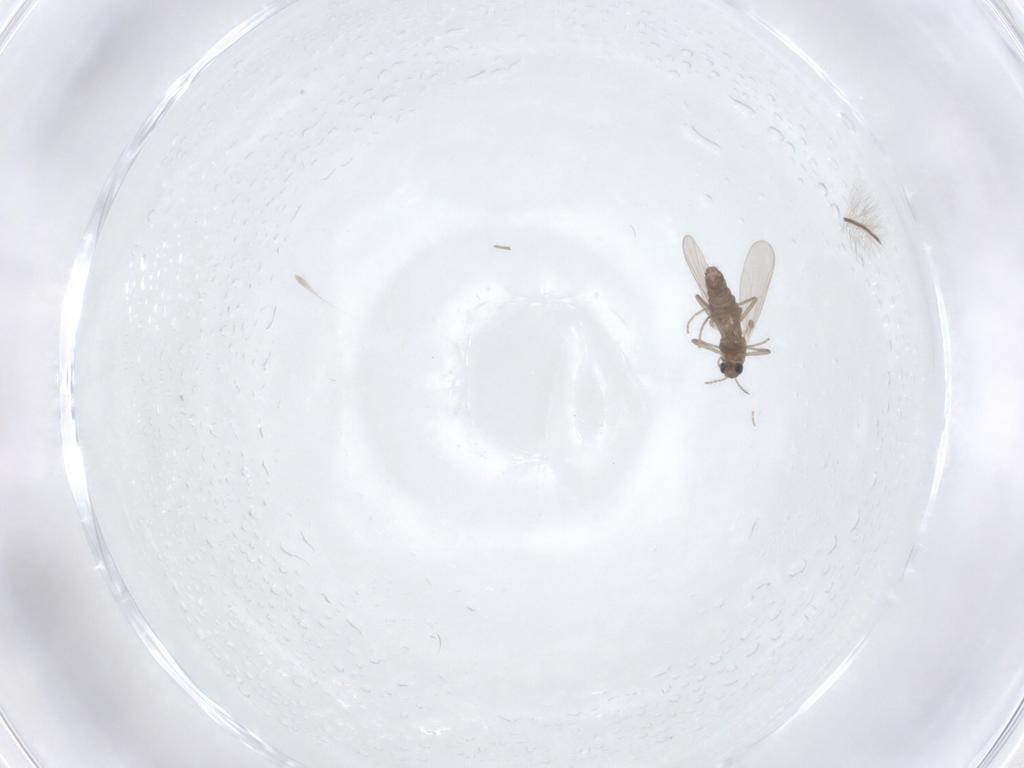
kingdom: Animalia
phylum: Arthropoda
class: Insecta
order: Diptera
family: Chironomidae
